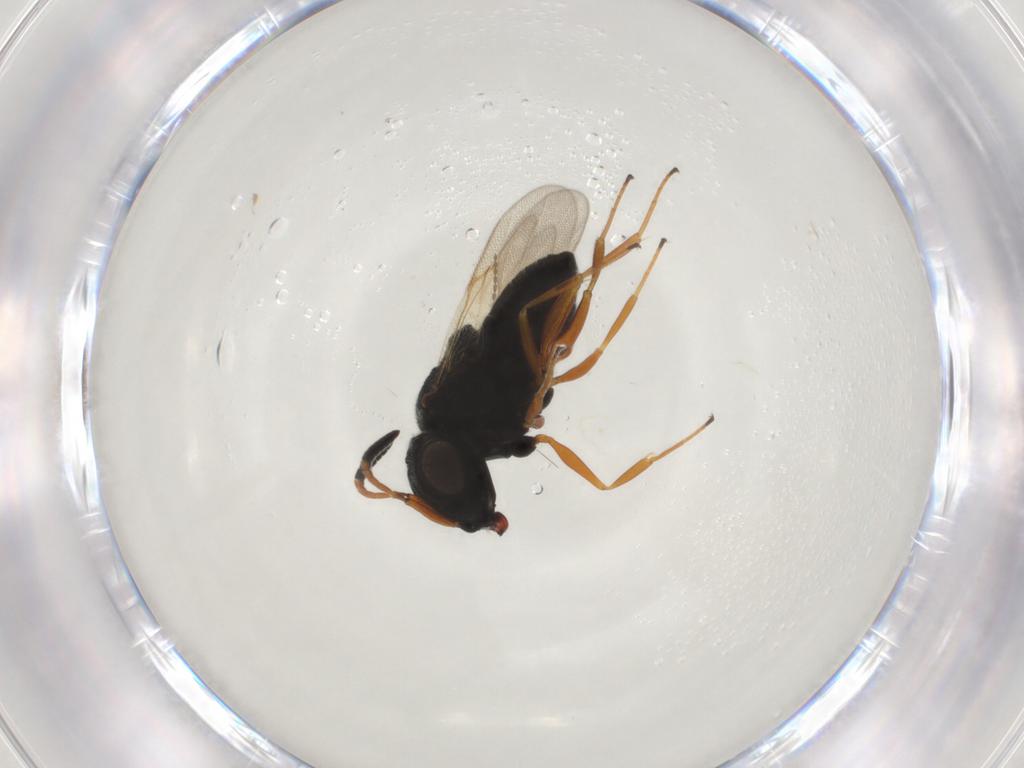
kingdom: Animalia
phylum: Arthropoda
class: Insecta
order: Hymenoptera
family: Scelionidae
